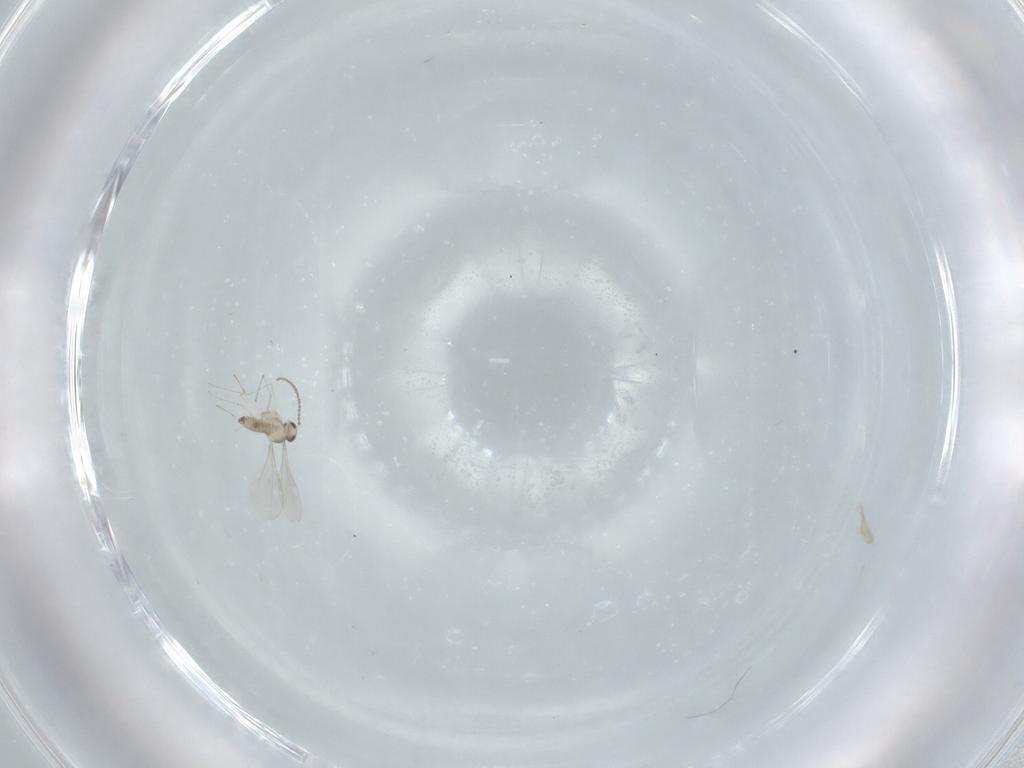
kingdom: Animalia
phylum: Arthropoda
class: Insecta
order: Diptera
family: Cecidomyiidae
